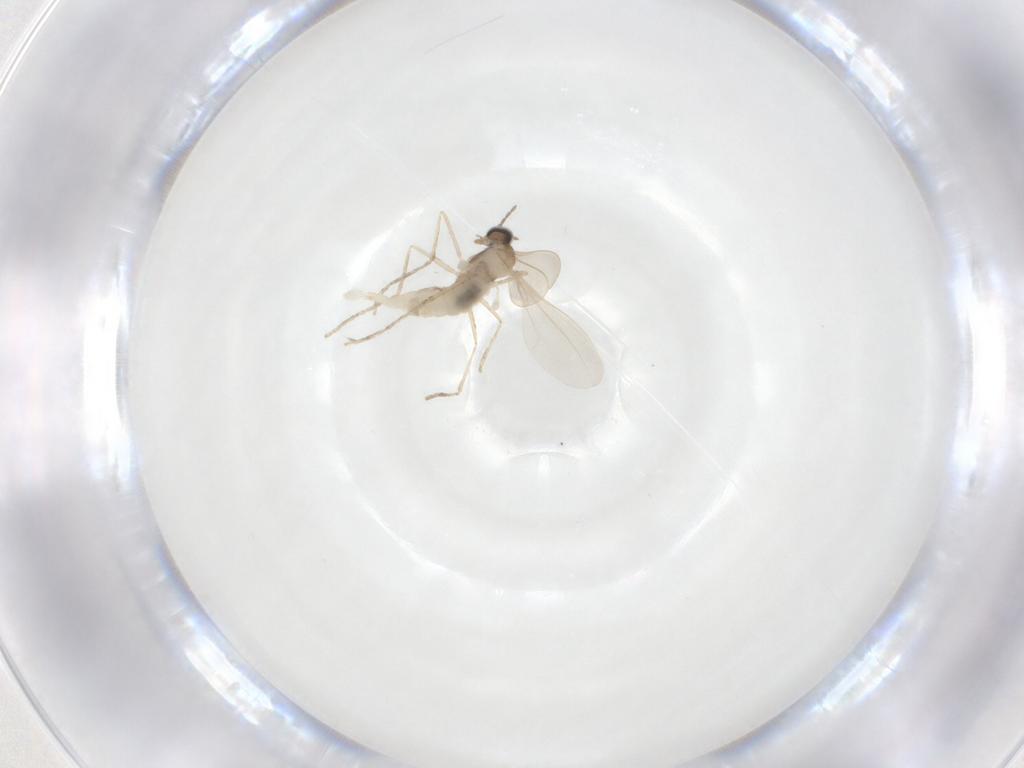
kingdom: Animalia
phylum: Arthropoda
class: Insecta
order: Diptera
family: Cecidomyiidae
